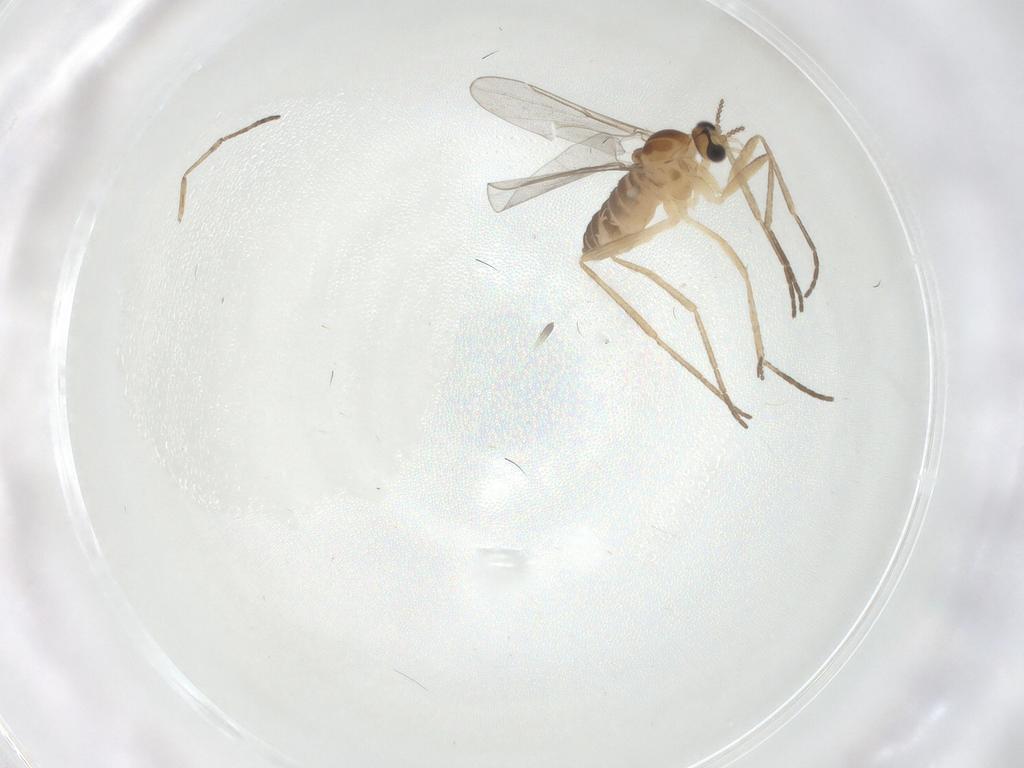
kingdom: Animalia
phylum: Arthropoda
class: Insecta
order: Diptera
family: Cecidomyiidae
